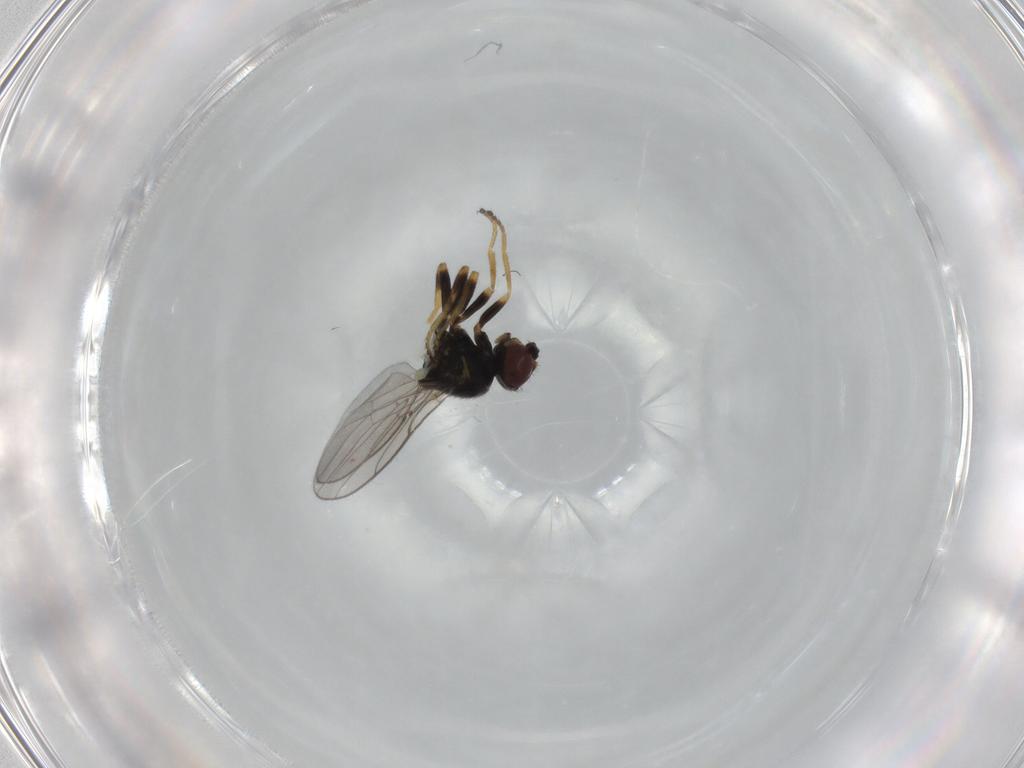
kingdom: Animalia
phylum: Arthropoda
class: Insecta
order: Diptera
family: Chloropidae
